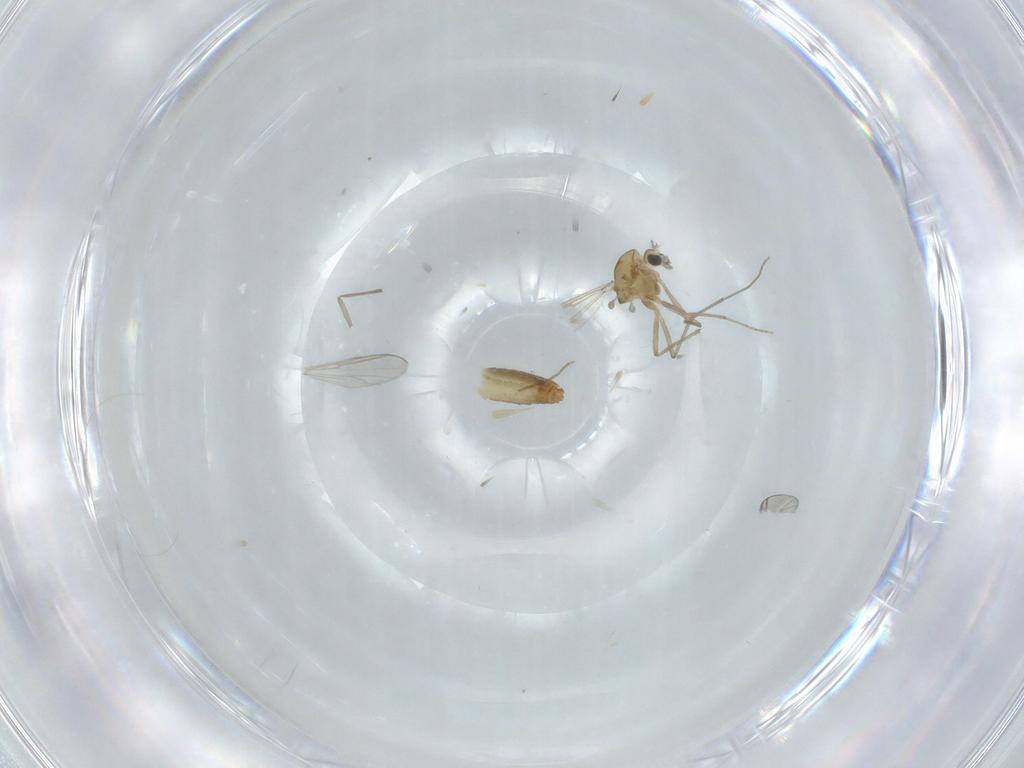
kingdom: Animalia
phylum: Arthropoda
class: Insecta
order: Diptera
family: Chironomidae
